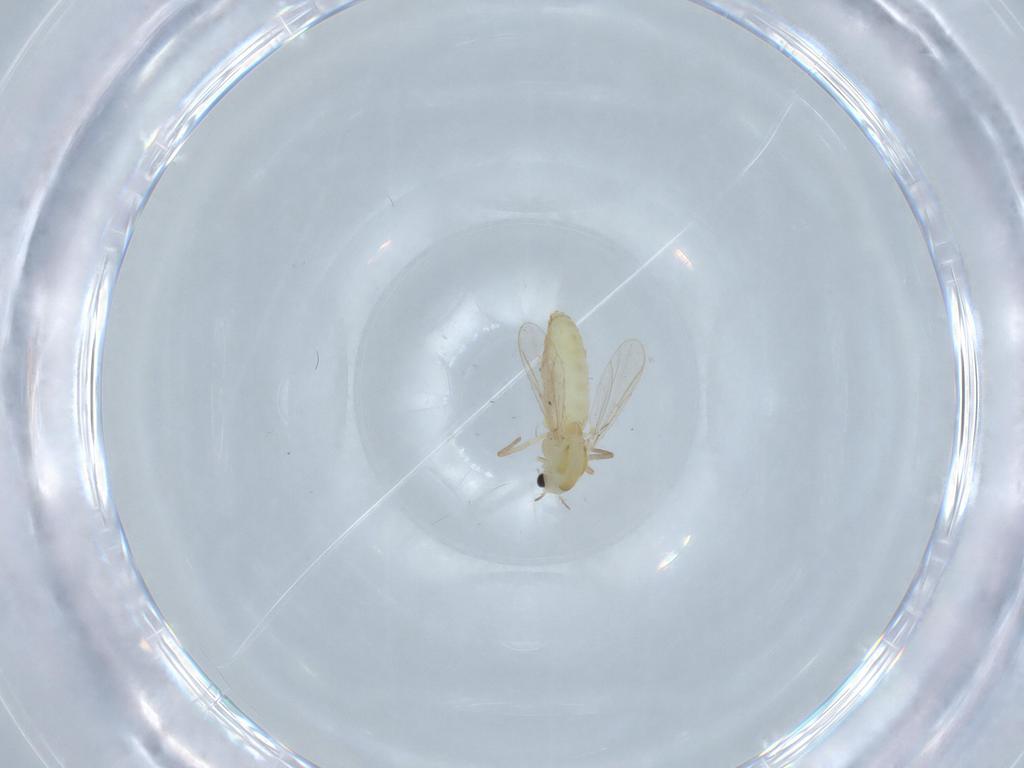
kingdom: Animalia
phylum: Arthropoda
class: Insecta
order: Diptera
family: Chironomidae
